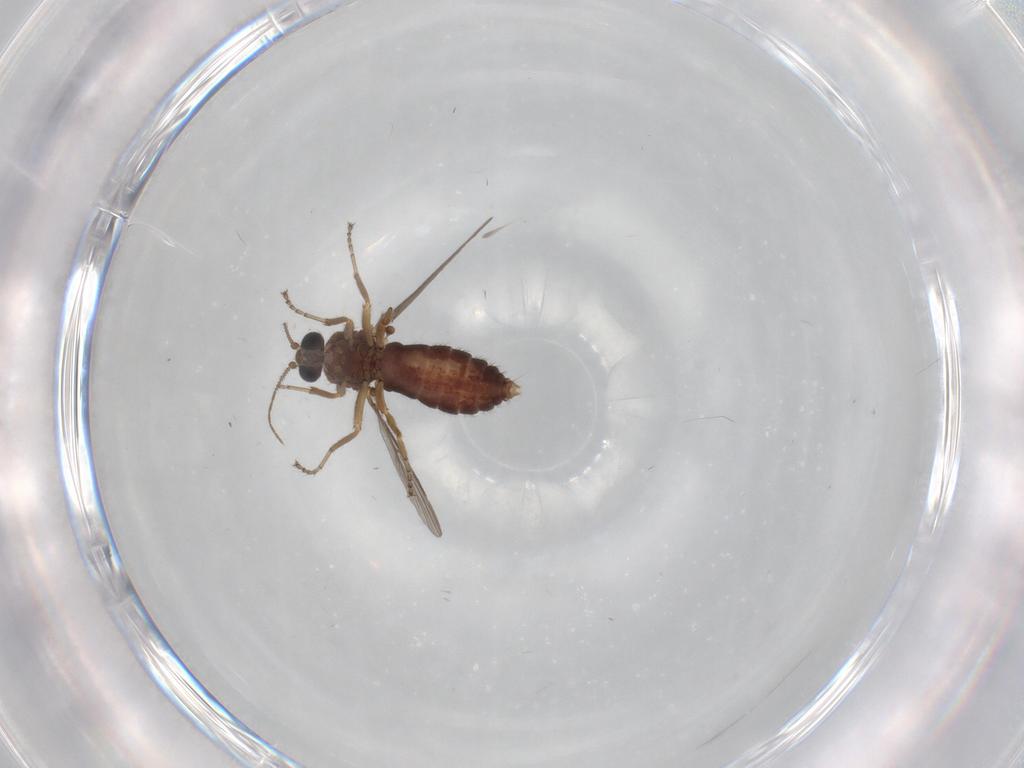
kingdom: Animalia
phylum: Arthropoda
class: Insecta
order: Diptera
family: Ceratopogonidae
